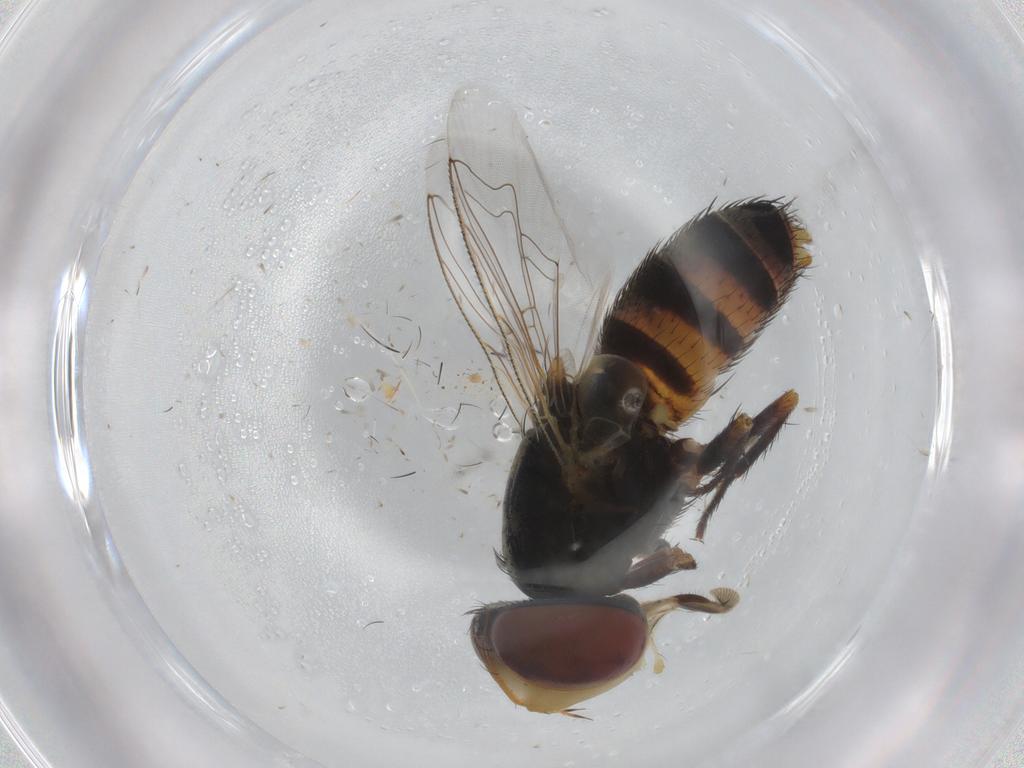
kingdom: Animalia
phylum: Arthropoda
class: Insecta
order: Diptera
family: Dolichopodidae
